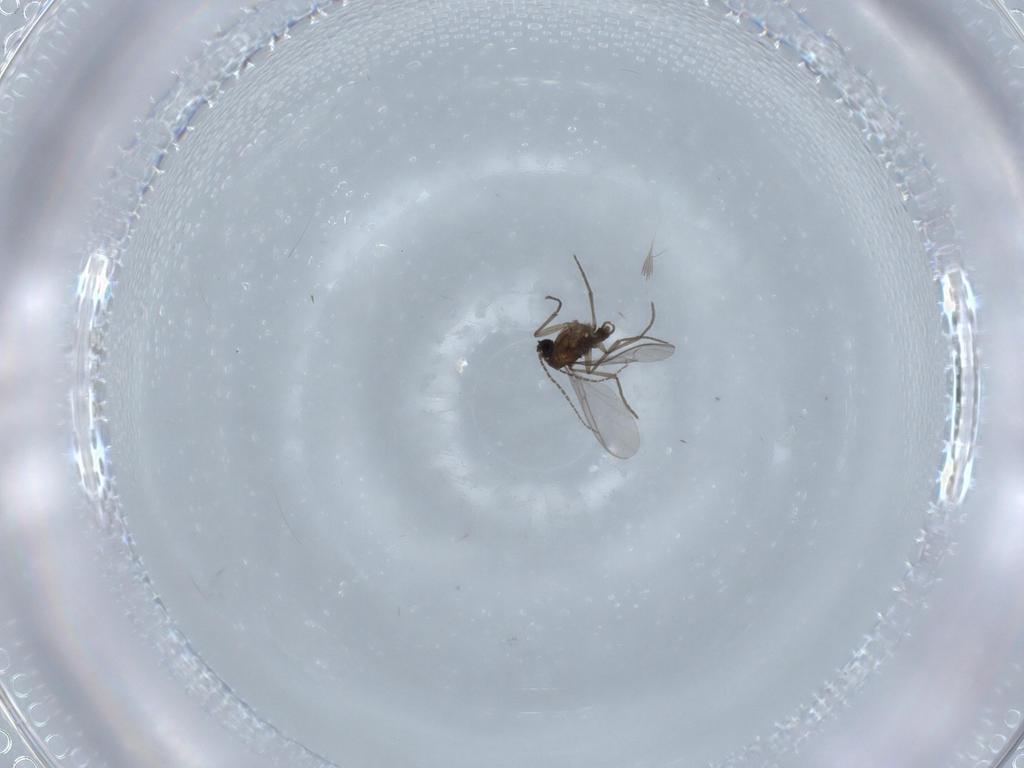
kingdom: Animalia
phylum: Arthropoda
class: Insecta
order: Diptera
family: Sciaridae
